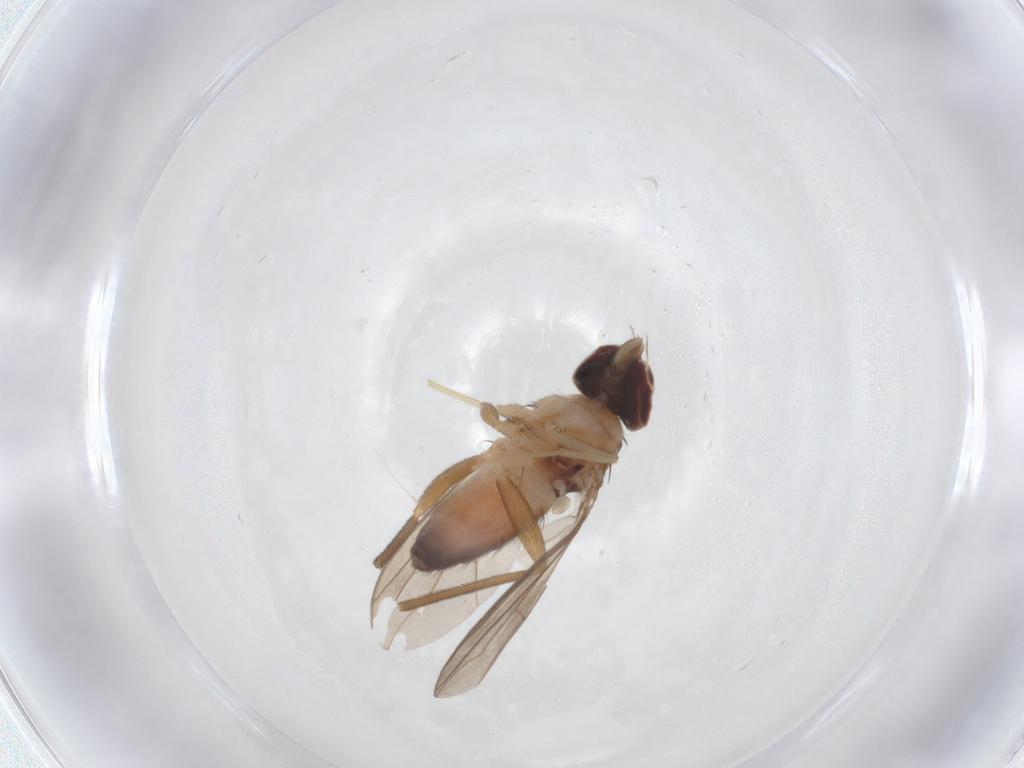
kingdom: Animalia
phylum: Arthropoda
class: Insecta
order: Diptera
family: Dolichopodidae
